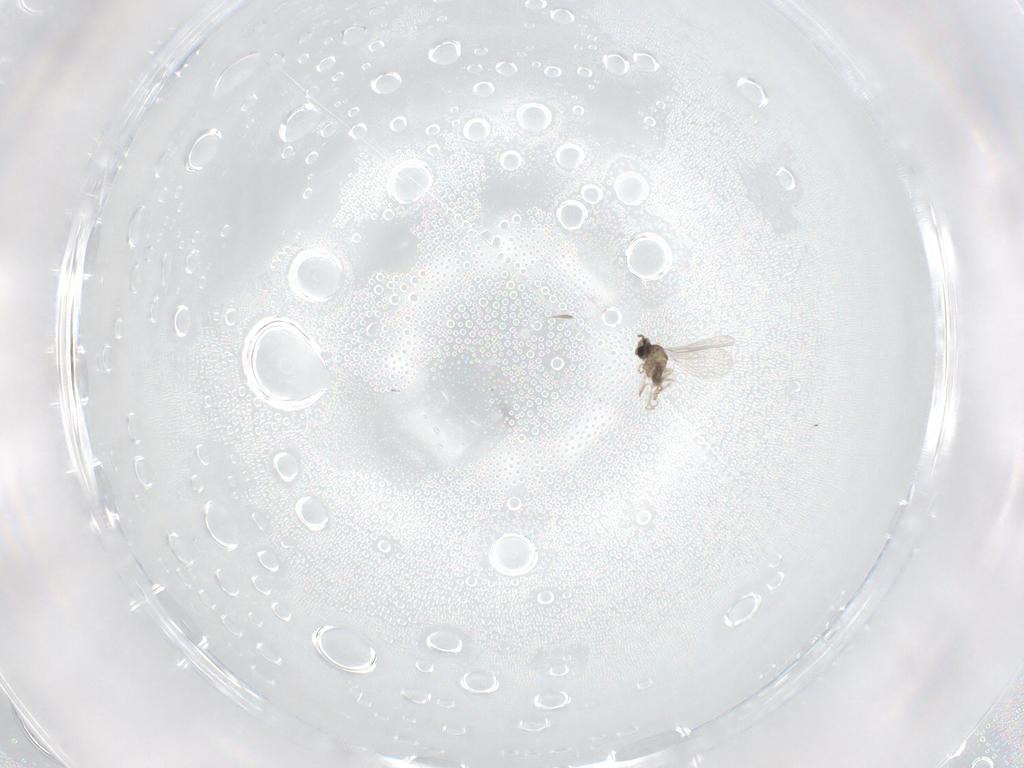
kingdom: Animalia
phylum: Arthropoda
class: Insecta
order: Diptera
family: Cecidomyiidae
